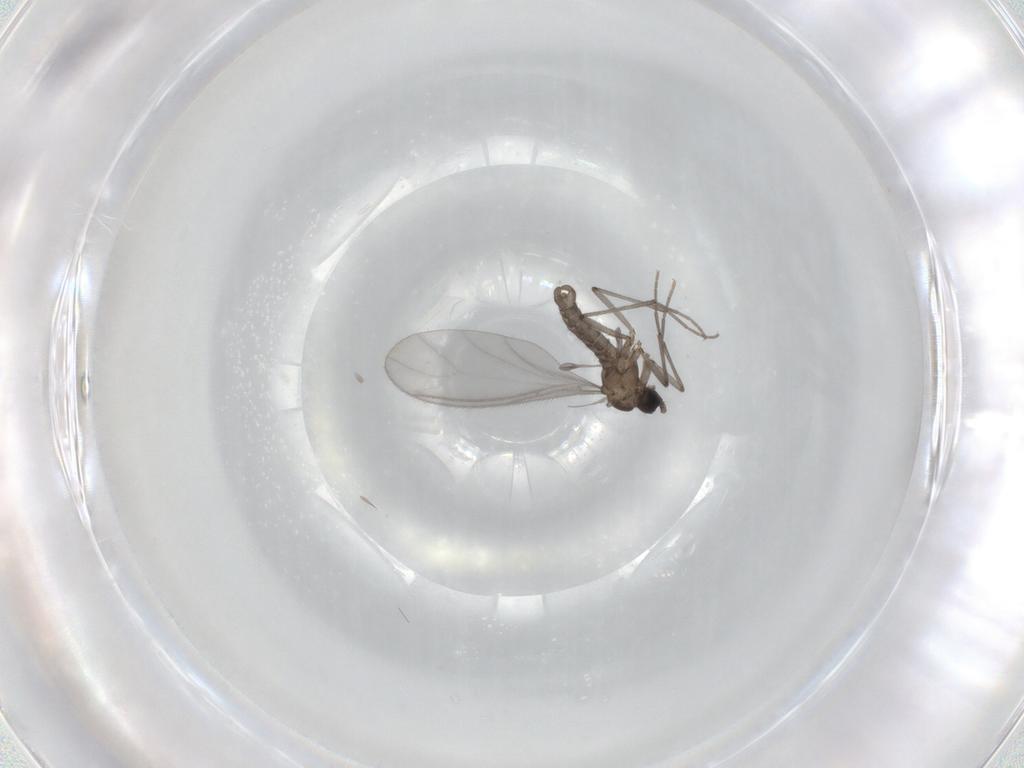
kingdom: Animalia
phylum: Arthropoda
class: Insecta
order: Diptera
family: Sciaridae
